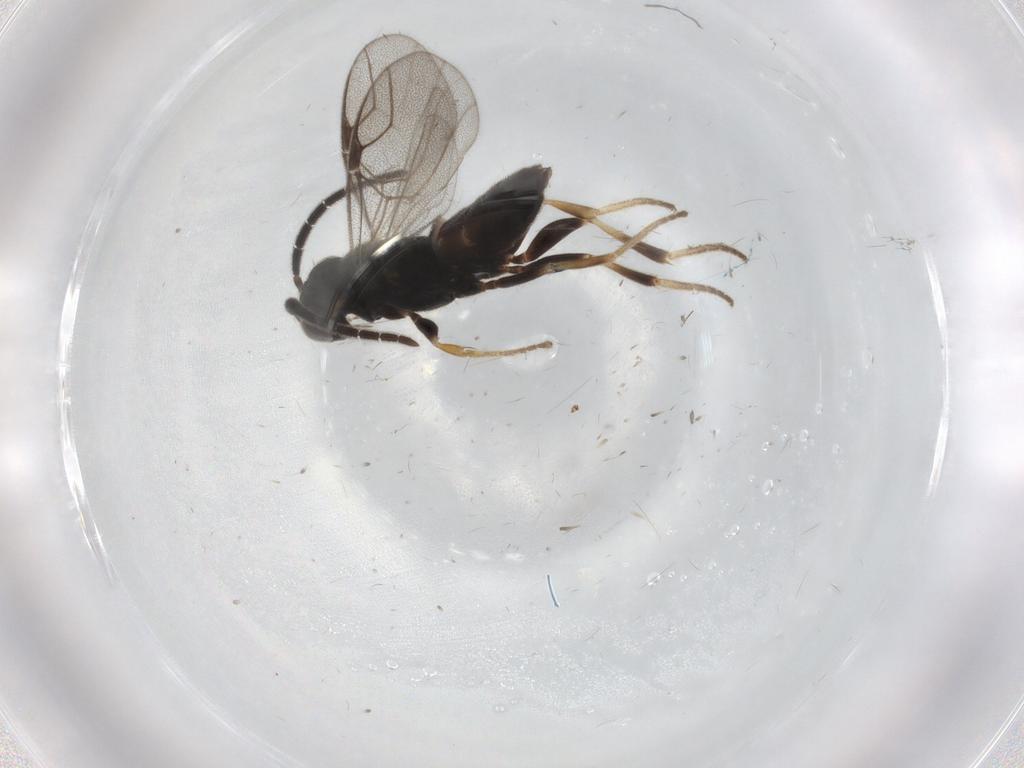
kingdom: Animalia
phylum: Arthropoda
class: Insecta
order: Hymenoptera
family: Dryinidae
